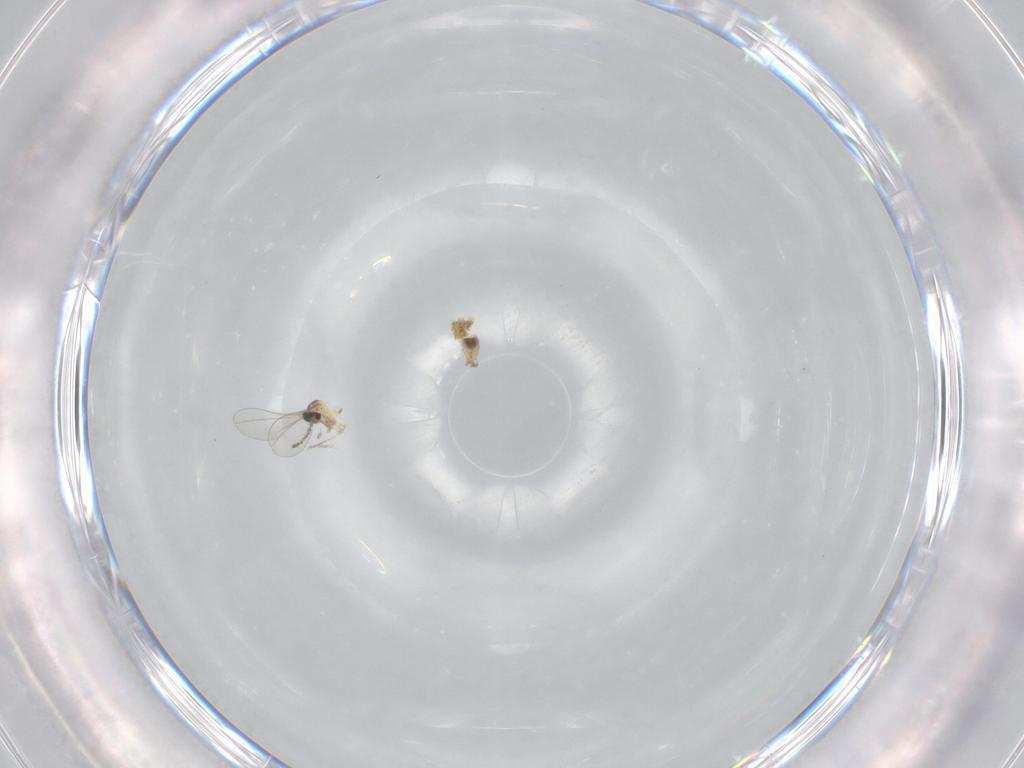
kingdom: Animalia
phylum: Arthropoda
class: Insecta
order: Diptera
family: Cecidomyiidae
